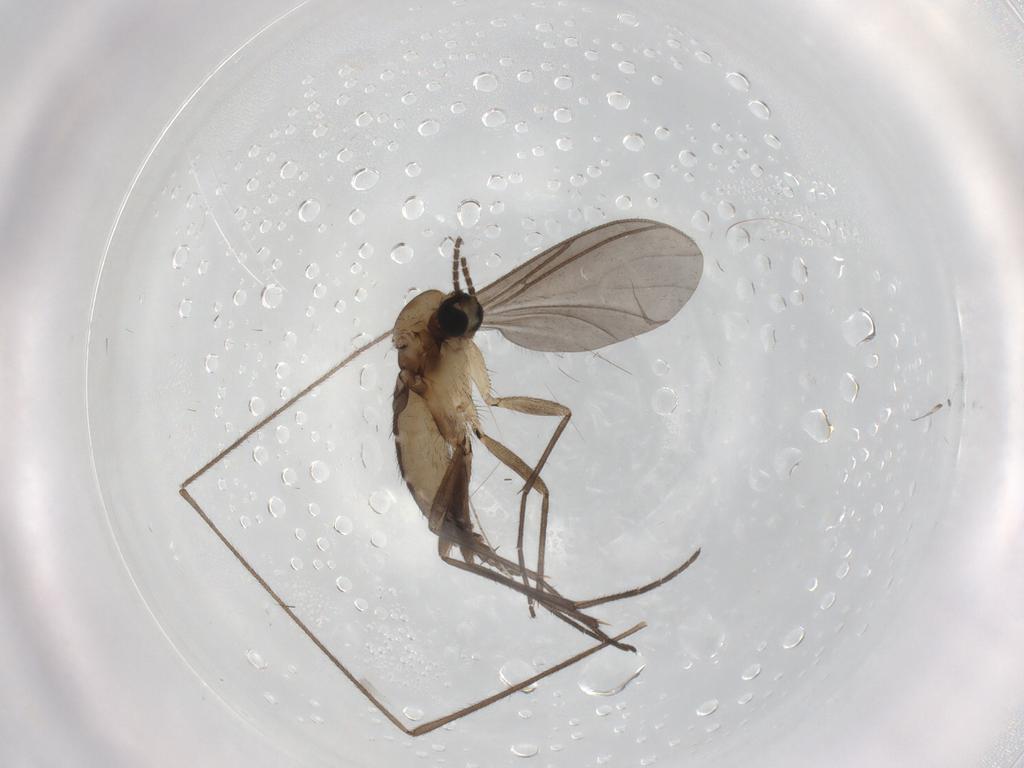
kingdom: Animalia
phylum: Arthropoda
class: Insecta
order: Diptera
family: Sciaridae
